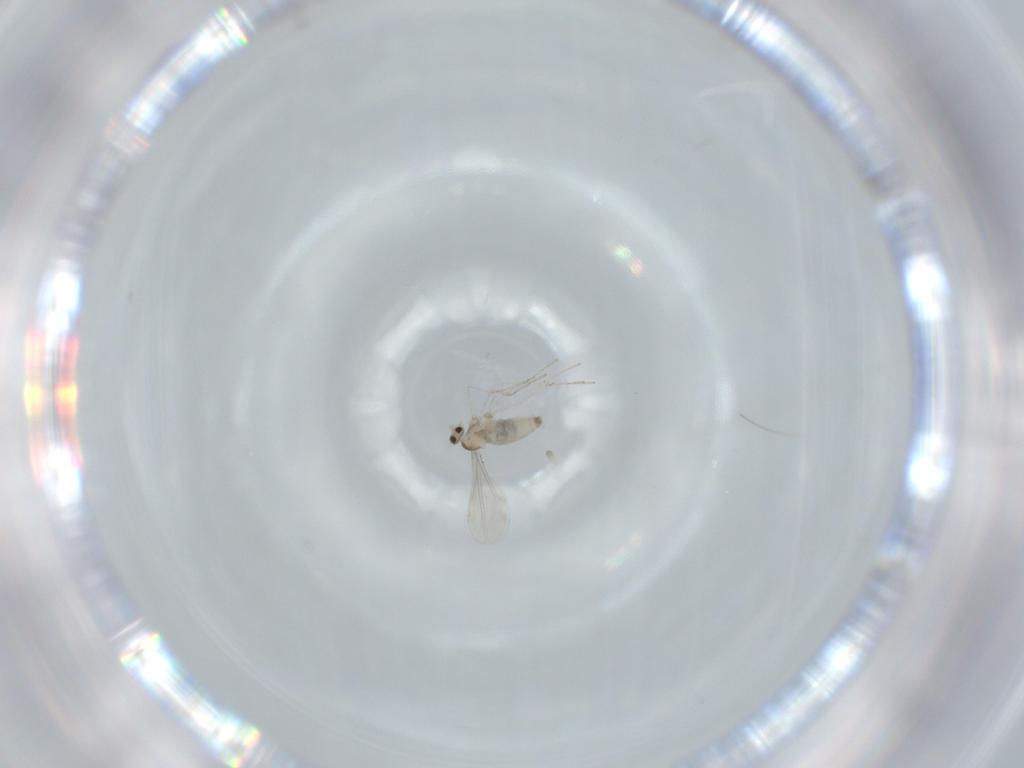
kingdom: Animalia
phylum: Arthropoda
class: Insecta
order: Diptera
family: Cecidomyiidae
